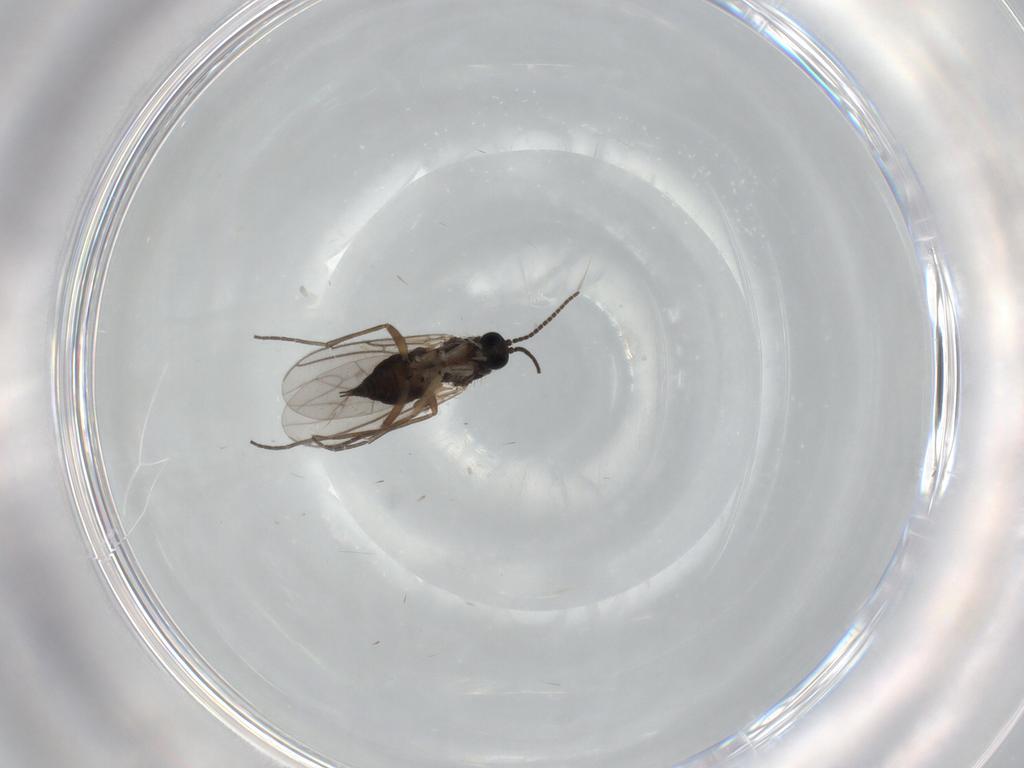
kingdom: Animalia
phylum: Arthropoda
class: Insecta
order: Diptera
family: Sciaridae
